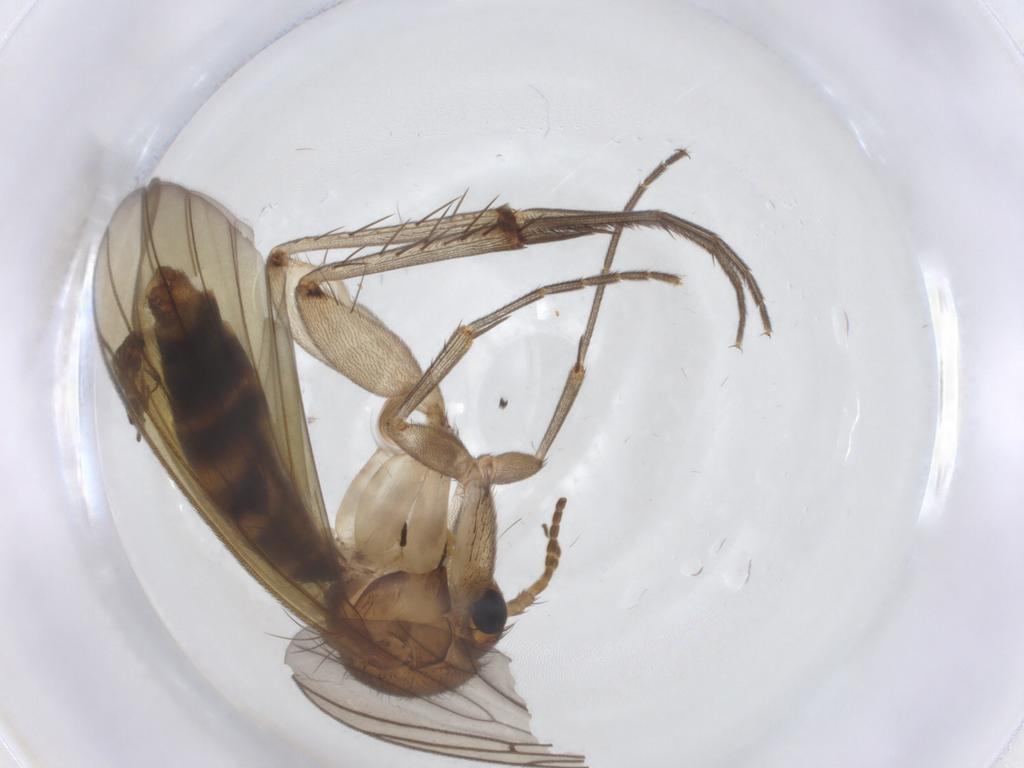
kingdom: Animalia
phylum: Arthropoda
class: Insecta
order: Diptera
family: Chironomidae
